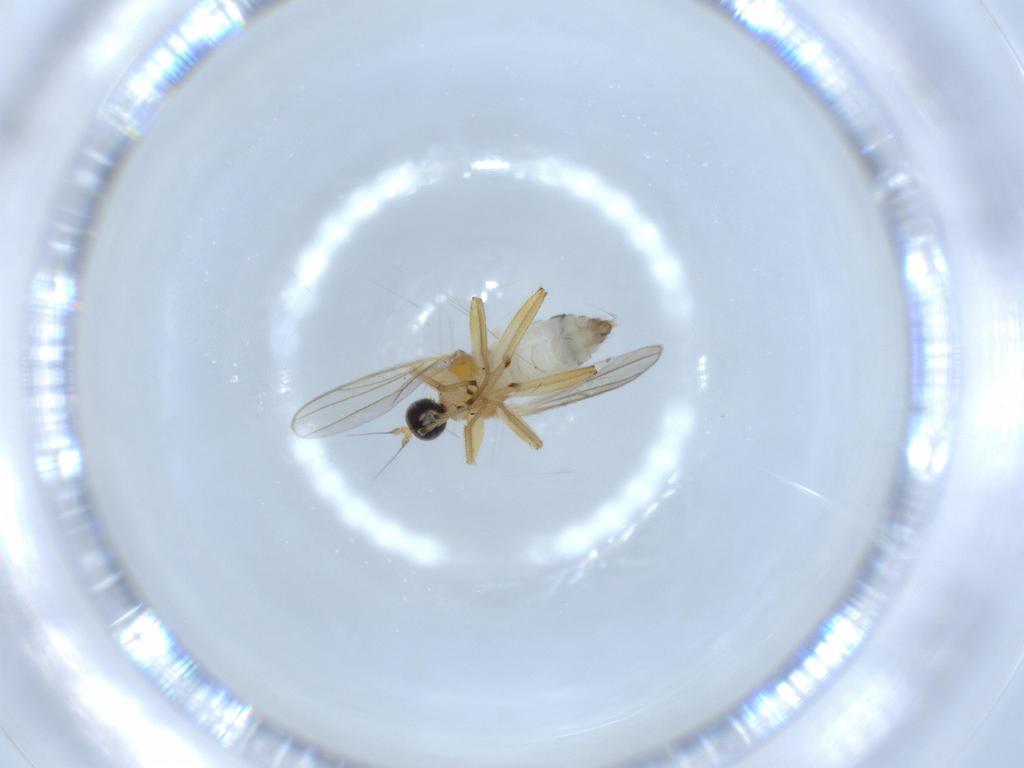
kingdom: Animalia
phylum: Arthropoda
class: Insecta
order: Diptera
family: Hybotidae
